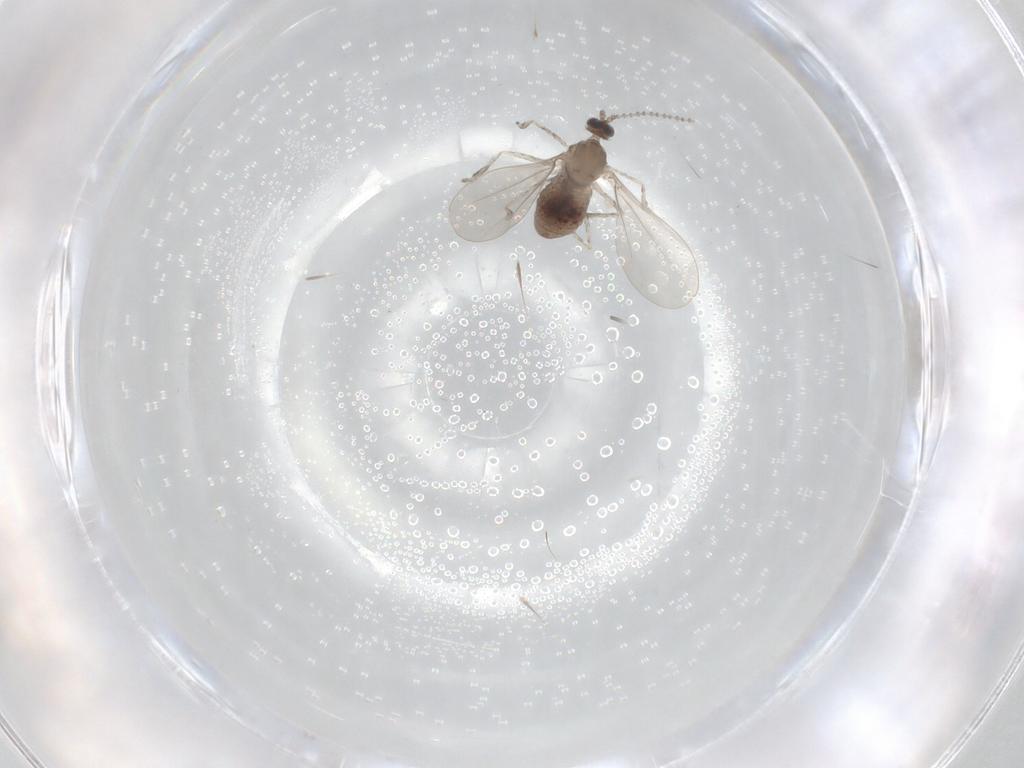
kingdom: Animalia
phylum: Arthropoda
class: Insecta
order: Diptera
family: Cecidomyiidae
